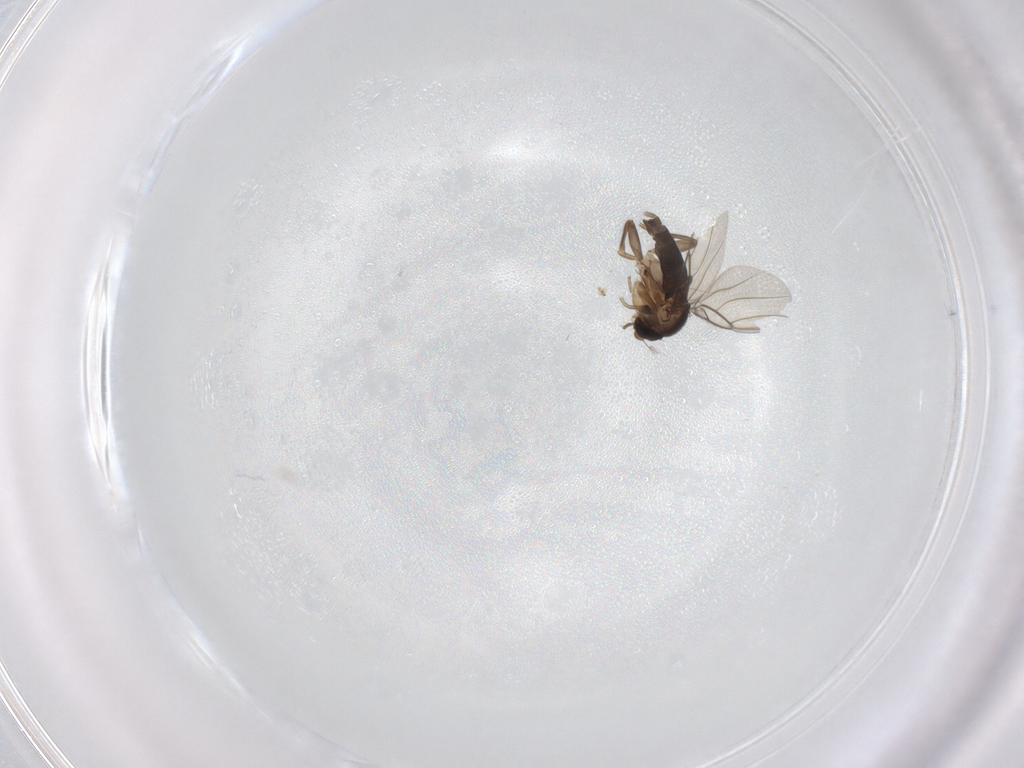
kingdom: Animalia
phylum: Arthropoda
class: Insecta
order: Diptera
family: Phoridae
